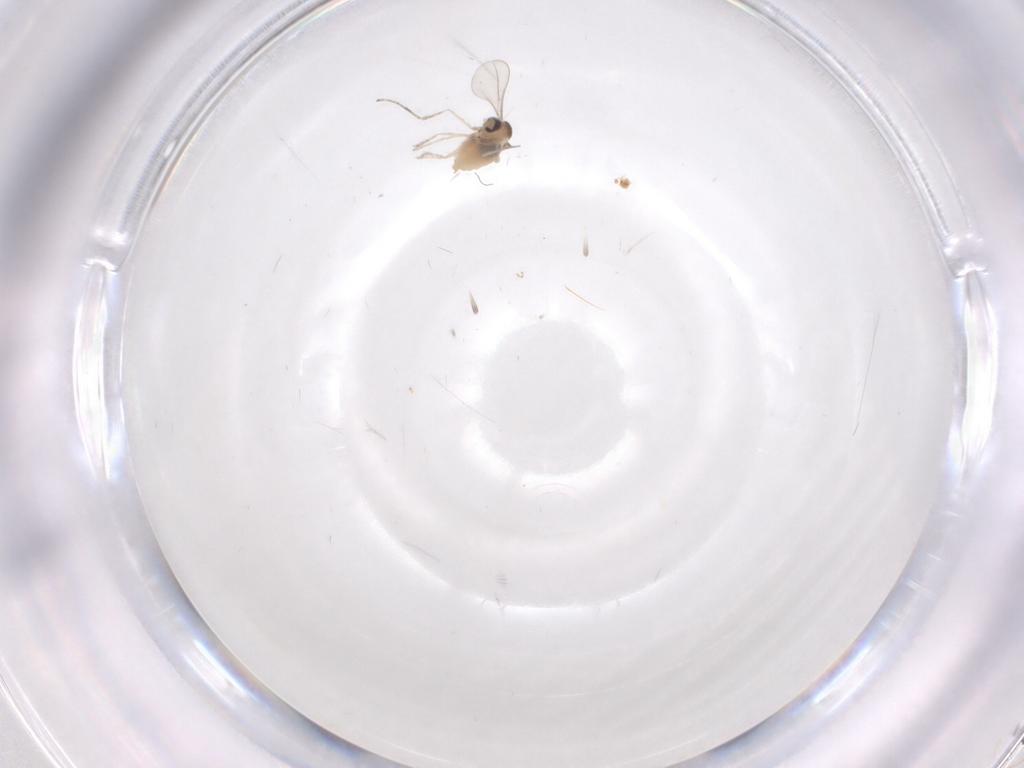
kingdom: Animalia
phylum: Arthropoda
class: Insecta
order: Diptera
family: Cecidomyiidae
